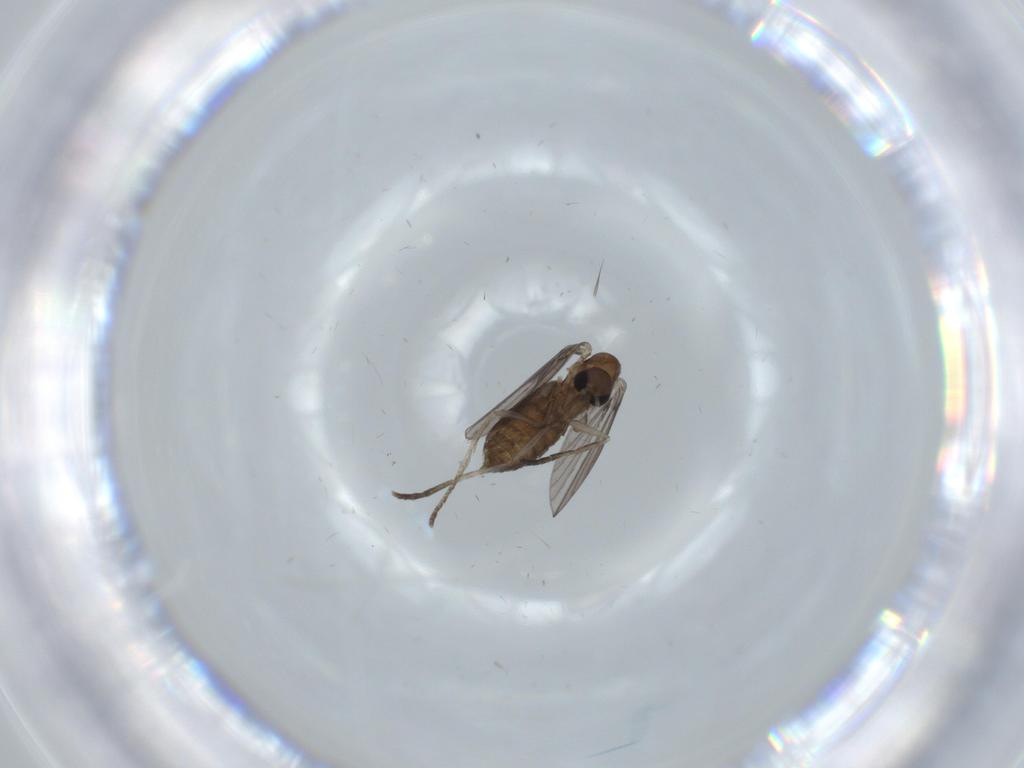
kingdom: Animalia
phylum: Arthropoda
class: Insecta
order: Diptera
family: Psychodidae
